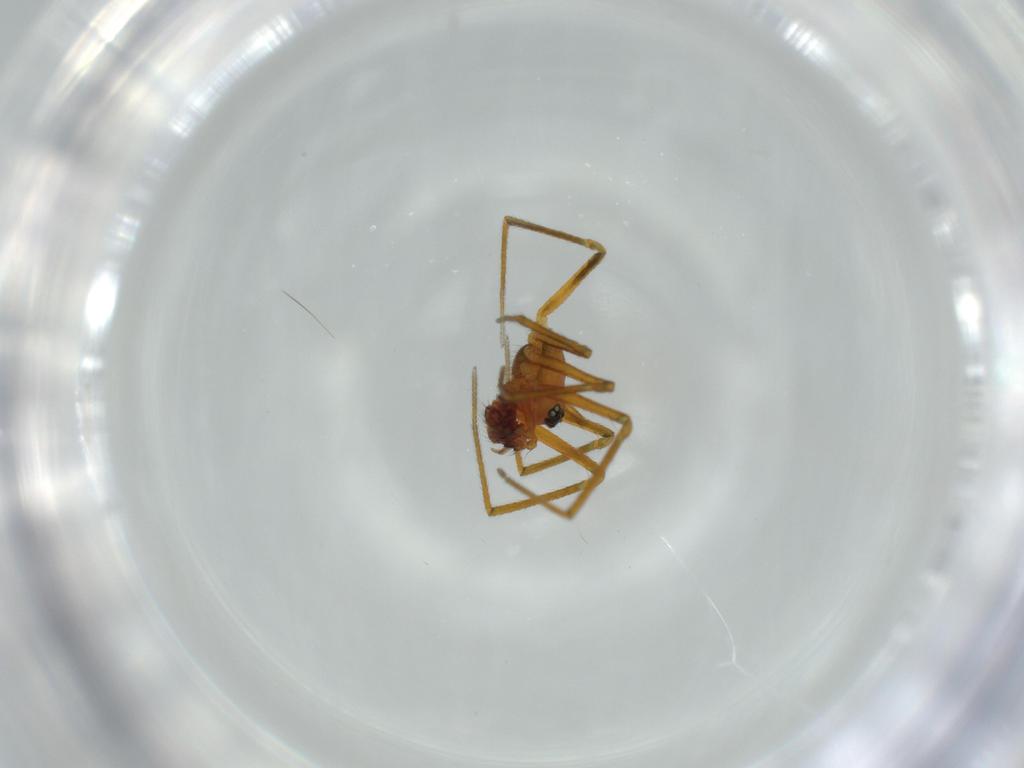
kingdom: Animalia
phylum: Arthropoda
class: Arachnida
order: Araneae
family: Linyphiidae
